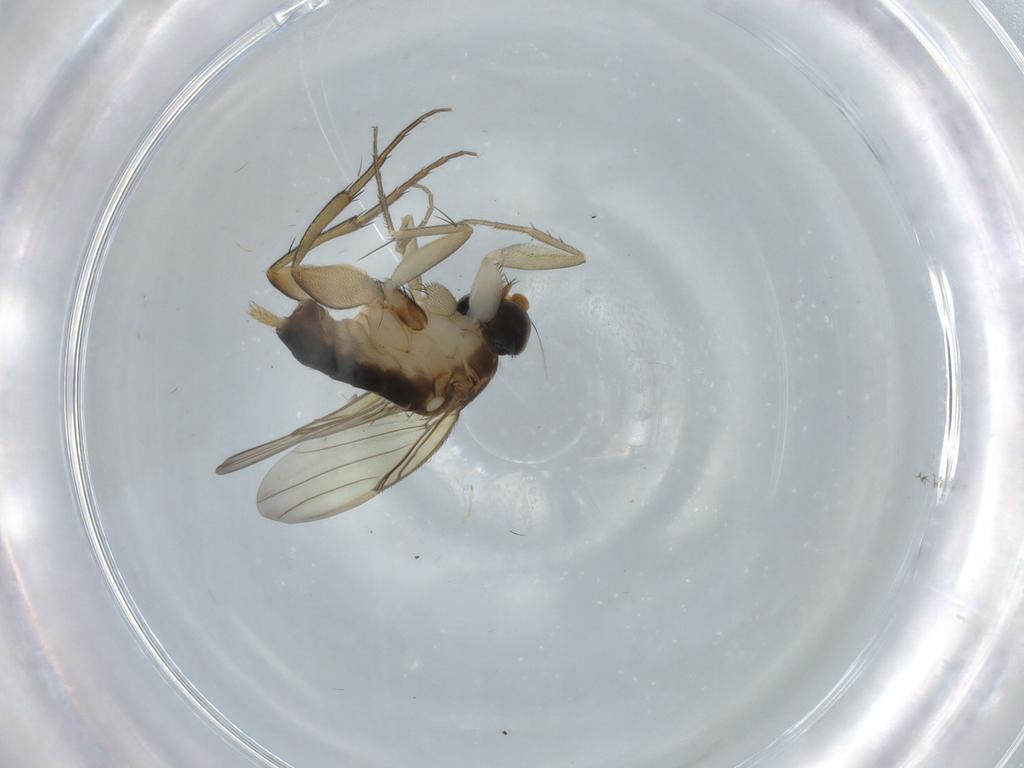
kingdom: Animalia
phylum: Arthropoda
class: Insecta
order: Diptera
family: Phoridae
